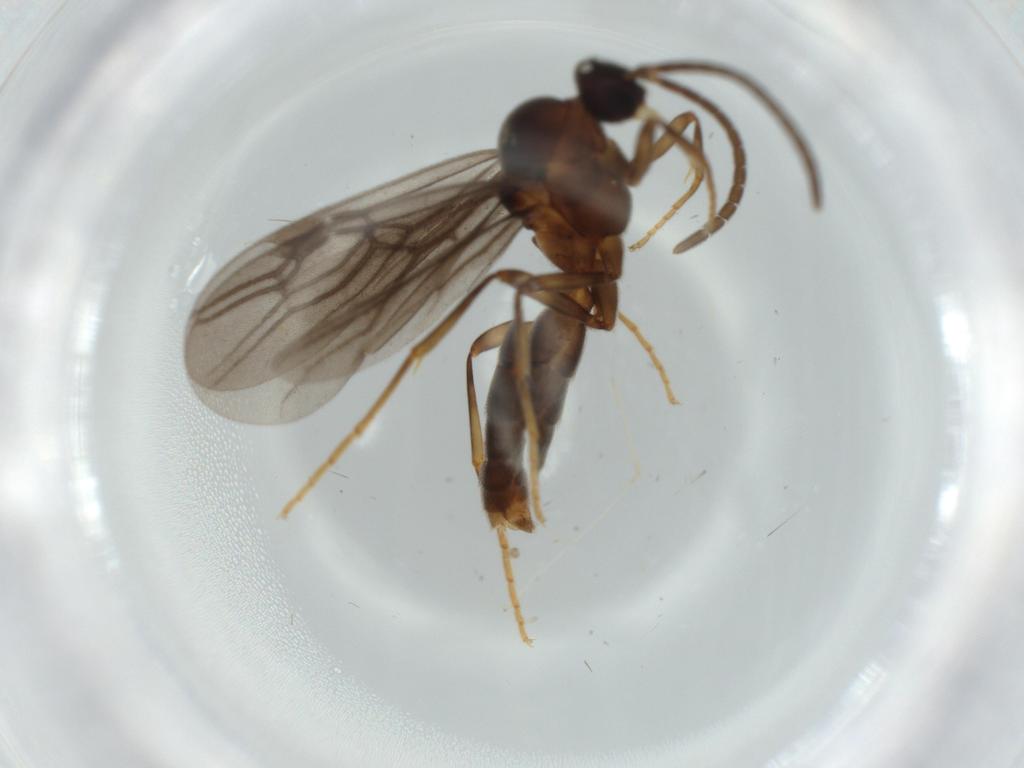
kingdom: Animalia
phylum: Arthropoda
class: Insecta
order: Hymenoptera
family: Formicidae
